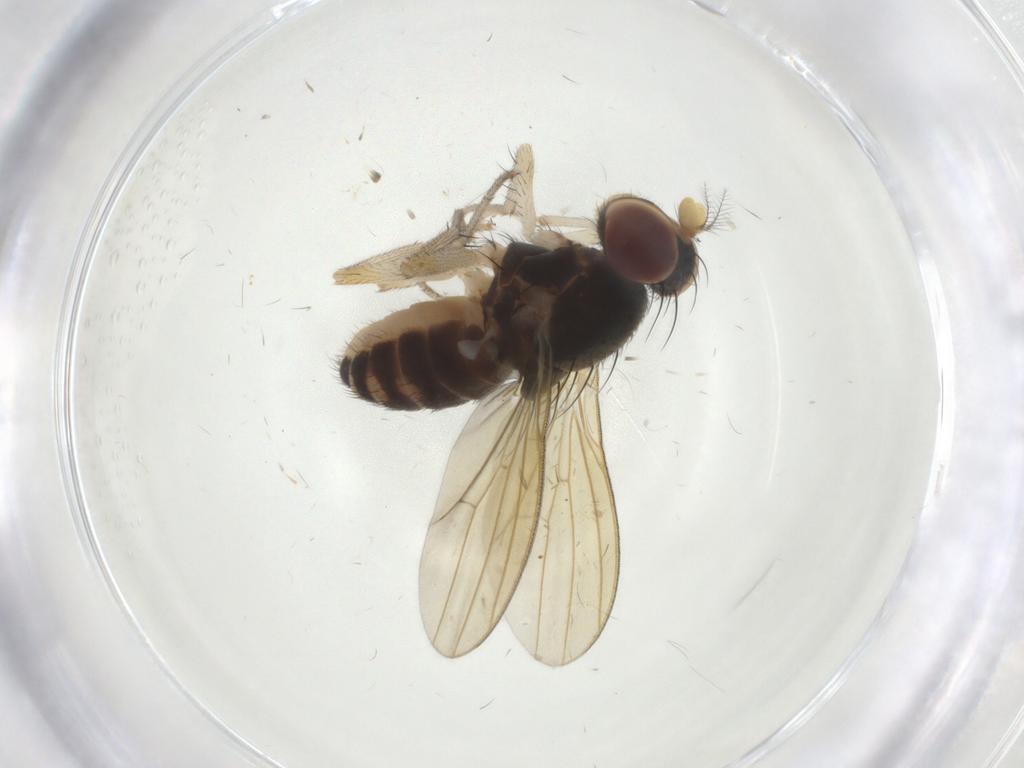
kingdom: Animalia
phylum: Arthropoda
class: Insecta
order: Diptera
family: Lauxaniidae
